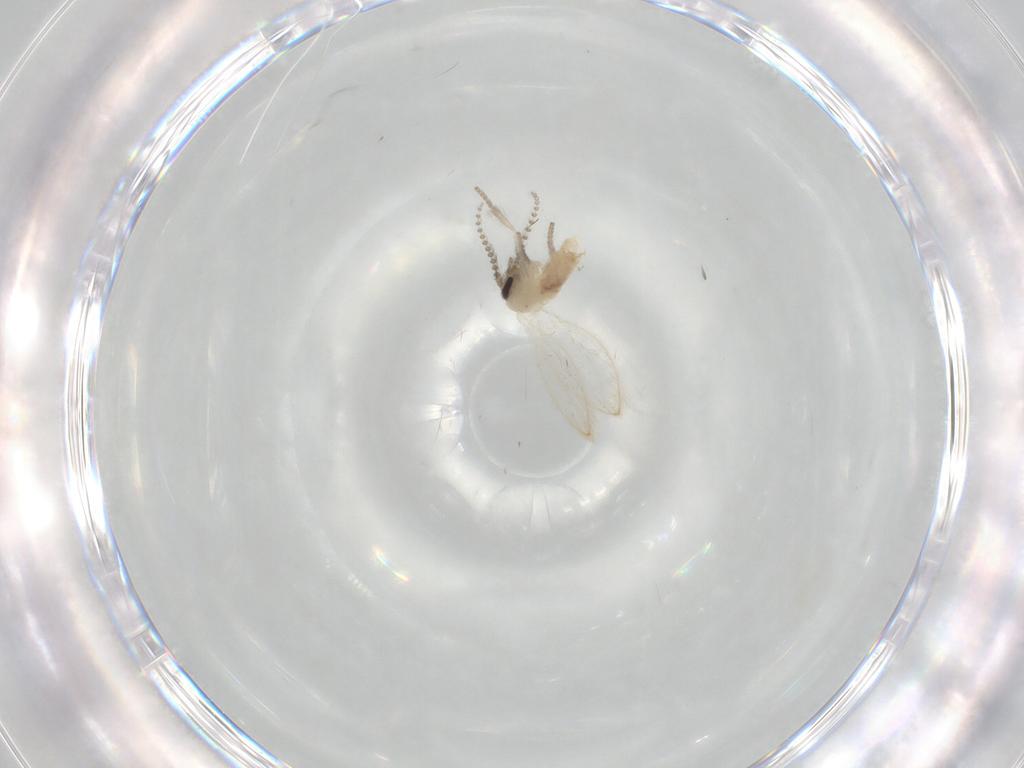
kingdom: Animalia
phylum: Arthropoda
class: Insecta
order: Diptera
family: Psychodidae
